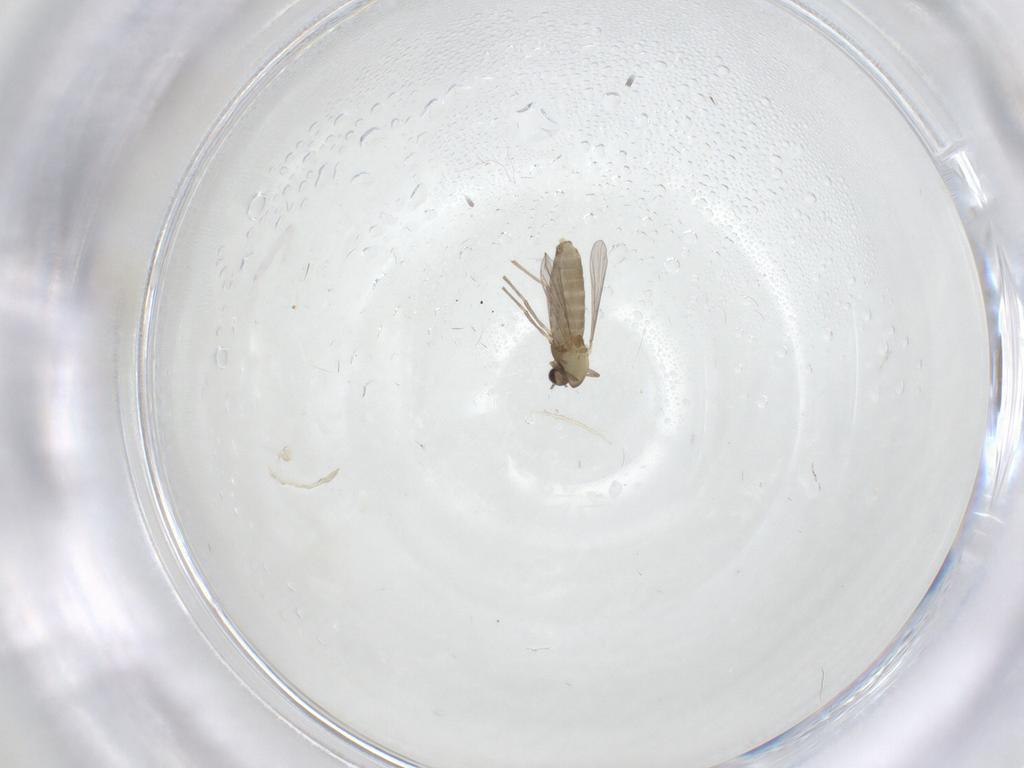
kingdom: Animalia
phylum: Arthropoda
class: Insecta
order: Diptera
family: Chironomidae
